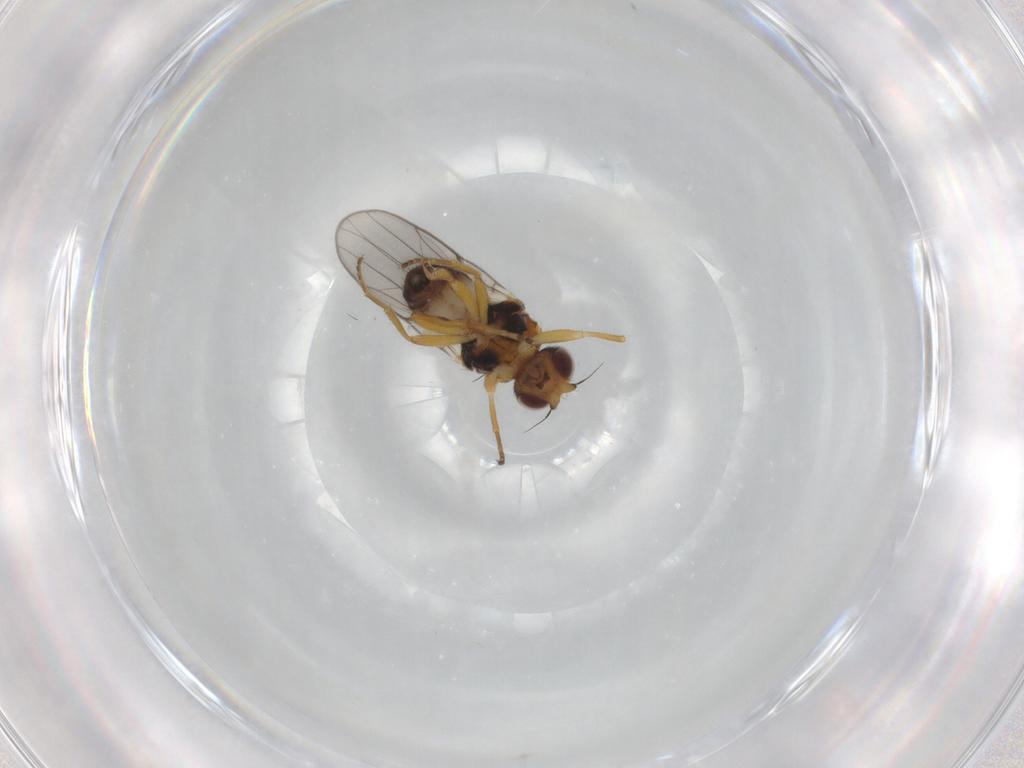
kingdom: Animalia
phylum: Arthropoda
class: Insecta
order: Diptera
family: Chloropidae
